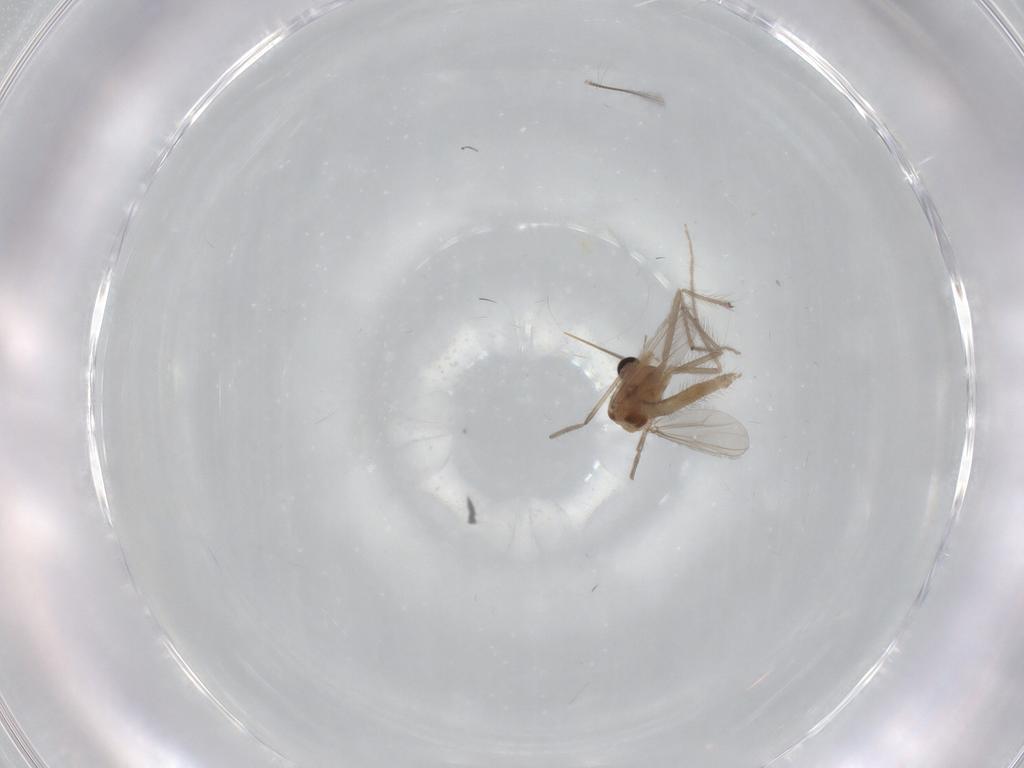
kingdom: Animalia
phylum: Arthropoda
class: Insecta
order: Diptera
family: Chironomidae
